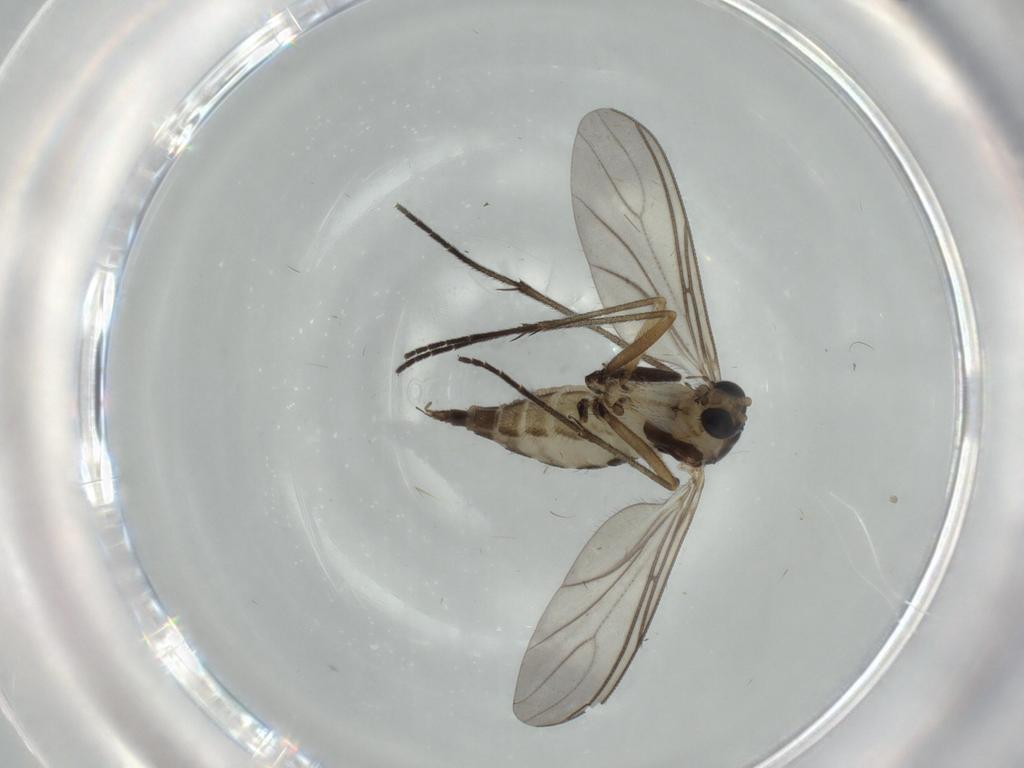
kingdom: Animalia
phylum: Arthropoda
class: Insecta
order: Diptera
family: Sciaridae
